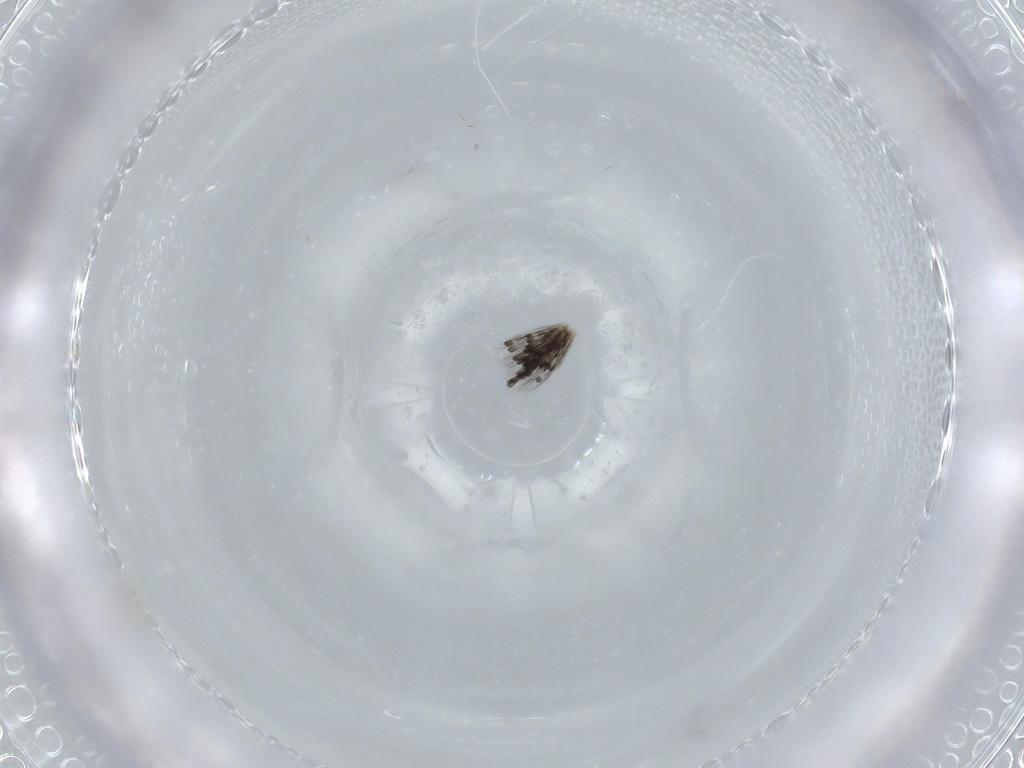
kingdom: Animalia
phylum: Arthropoda
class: Insecta
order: Hymenoptera
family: Aphelinidae
